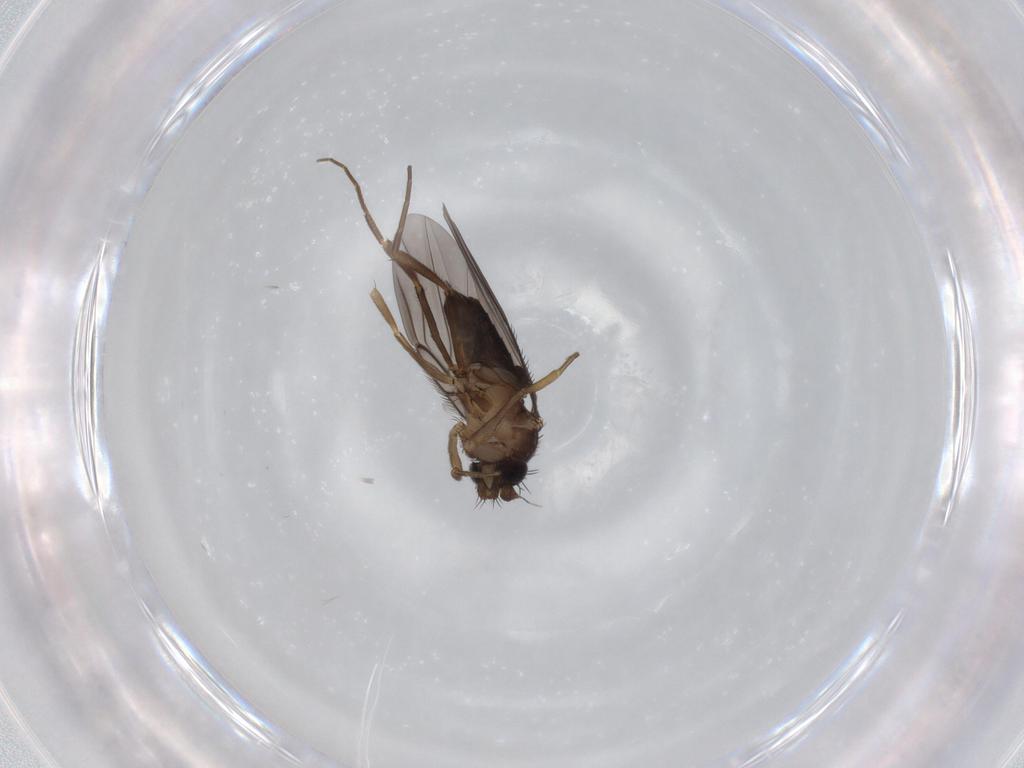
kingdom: Animalia
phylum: Arthropoda
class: Insecta
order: Diptera
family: Phoridae
